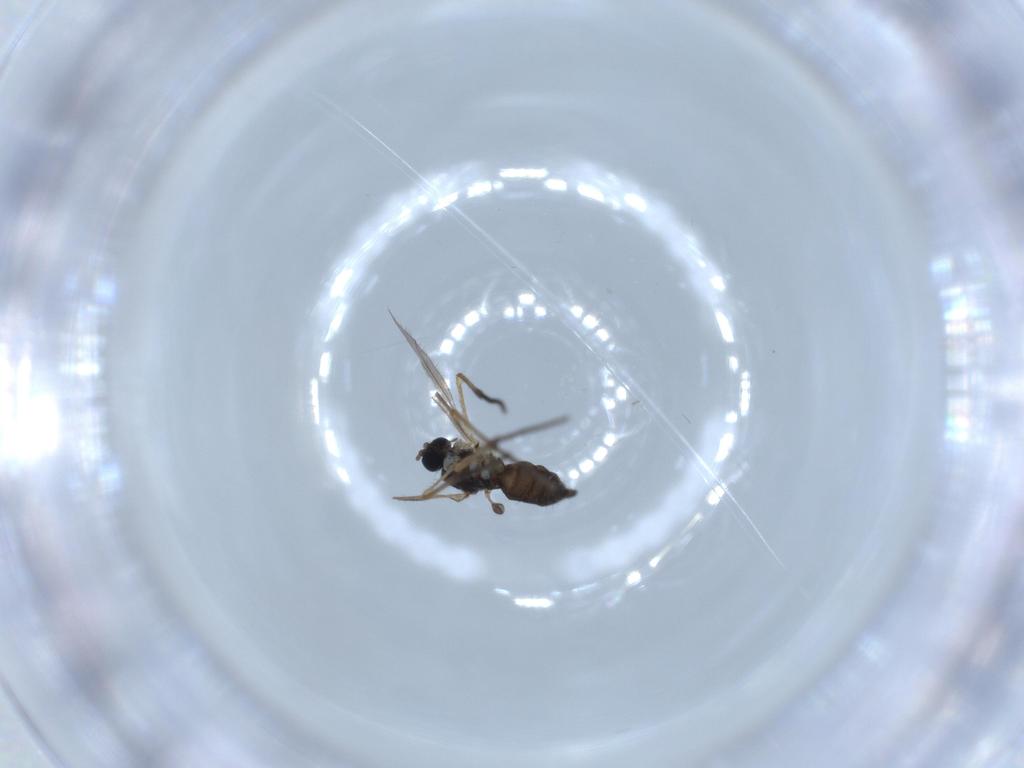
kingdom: Animalia
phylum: Arthropoda
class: Insecta
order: Diptera
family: Sciaridae
